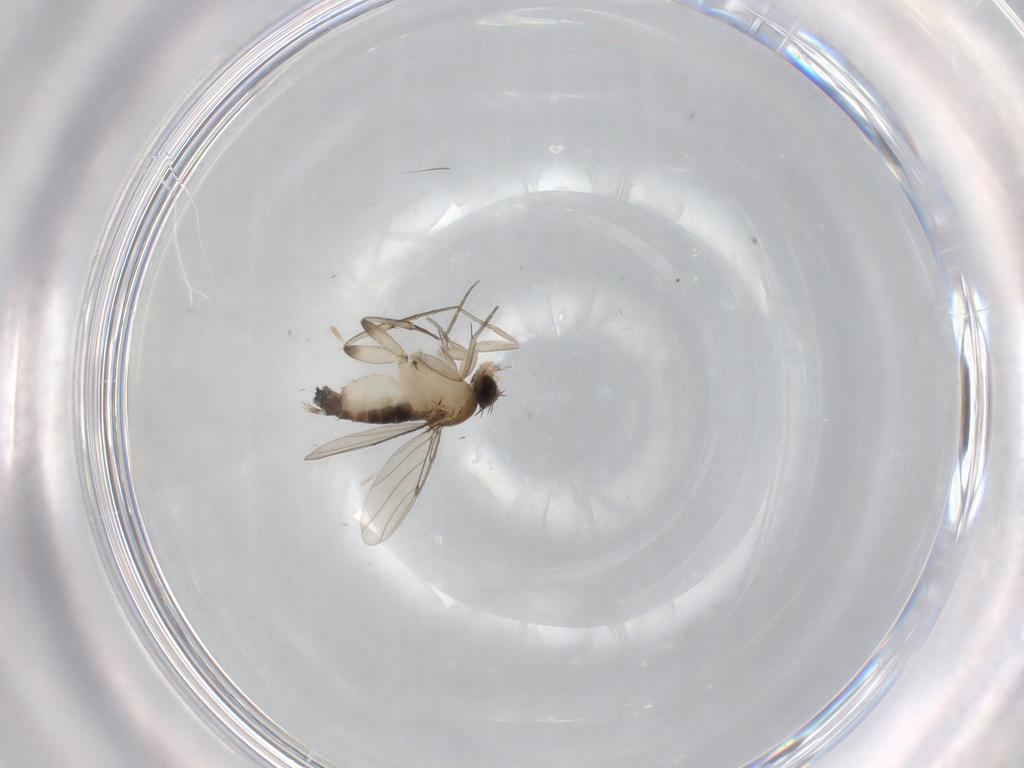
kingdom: Animalia
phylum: Arthropoda
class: Insecta
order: Diptera
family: Phoridae
